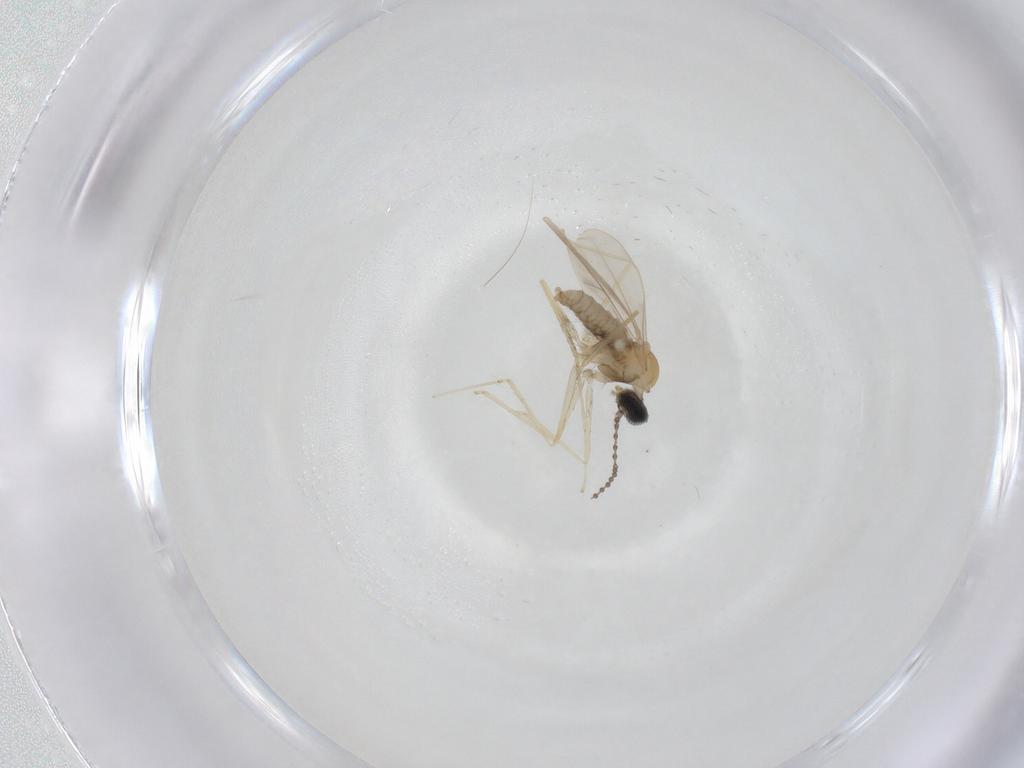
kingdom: Animalia
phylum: Arthropoda
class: Insecta
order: Diptera
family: Cecidomyiidae
